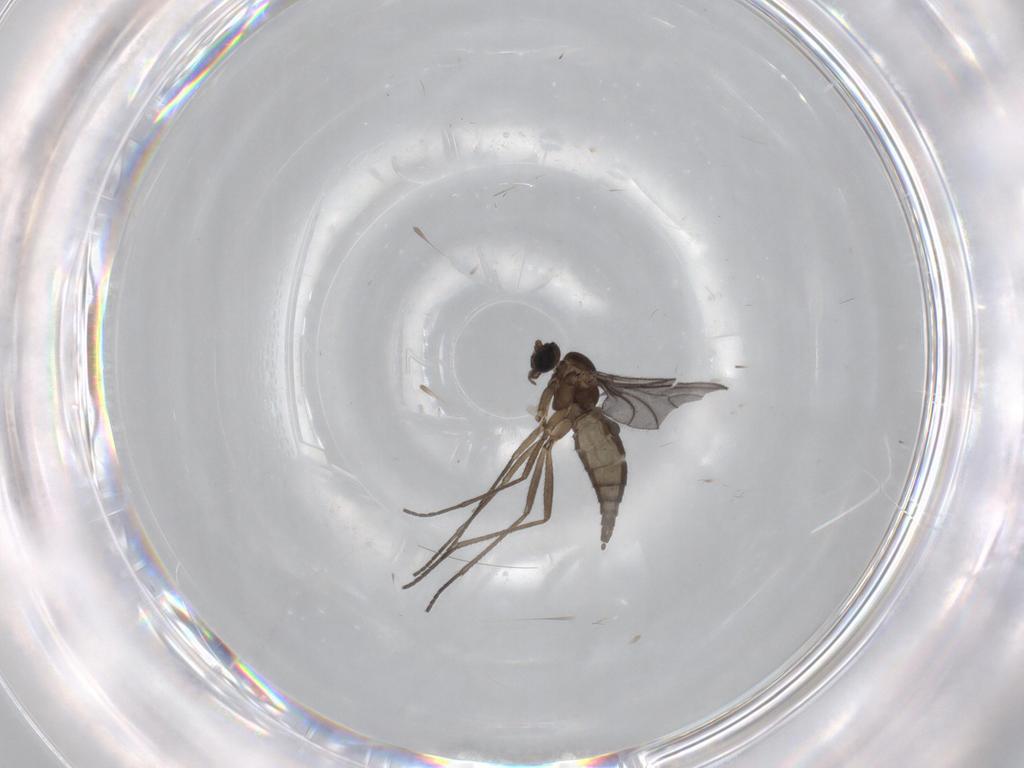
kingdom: Animalia
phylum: Arthropoda
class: Insecta
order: Diptera
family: Sciaridae
